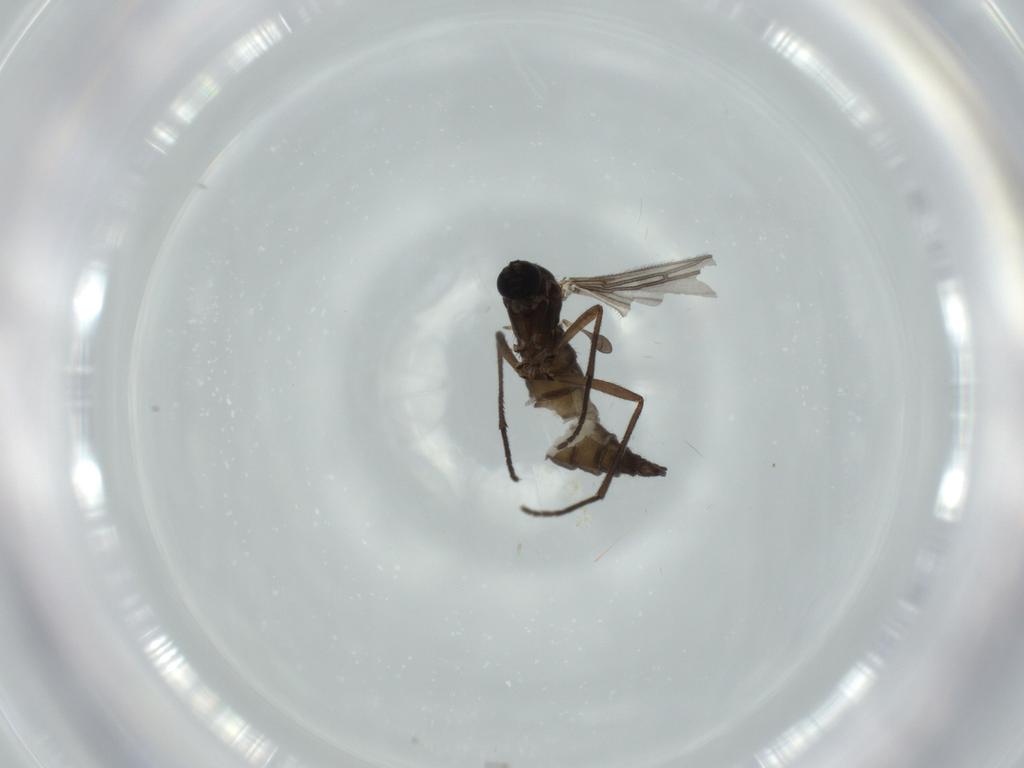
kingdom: Animalia
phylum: Arthropoda
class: Insecta
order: Diptera
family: Sciaridae
